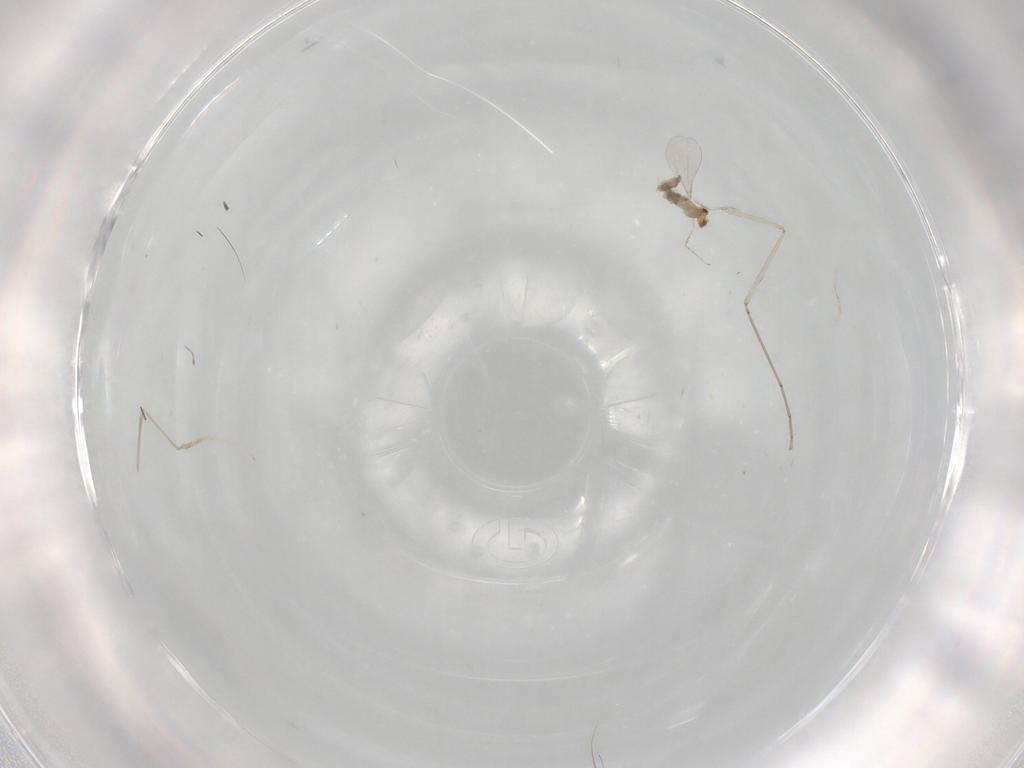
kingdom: Animalia
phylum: Arthropoda
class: Insecta
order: Diptera
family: Cecidomyiidae
